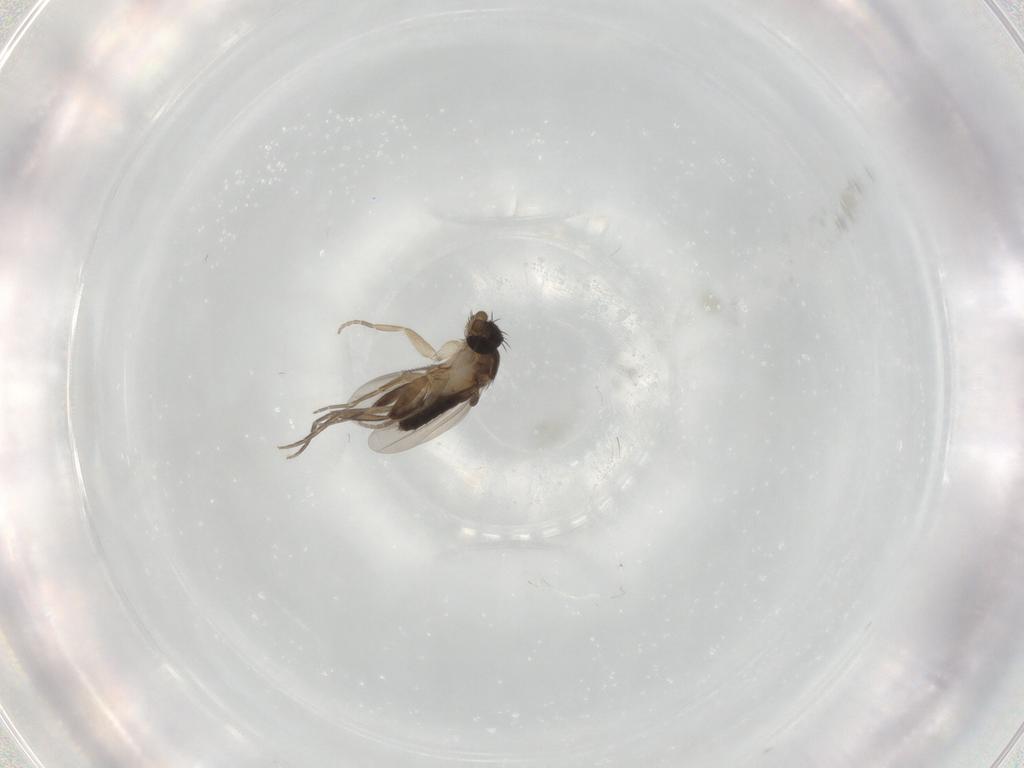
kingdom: Animalia
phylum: Arthropoda
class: Insecta
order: Diptera
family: Phoridae
